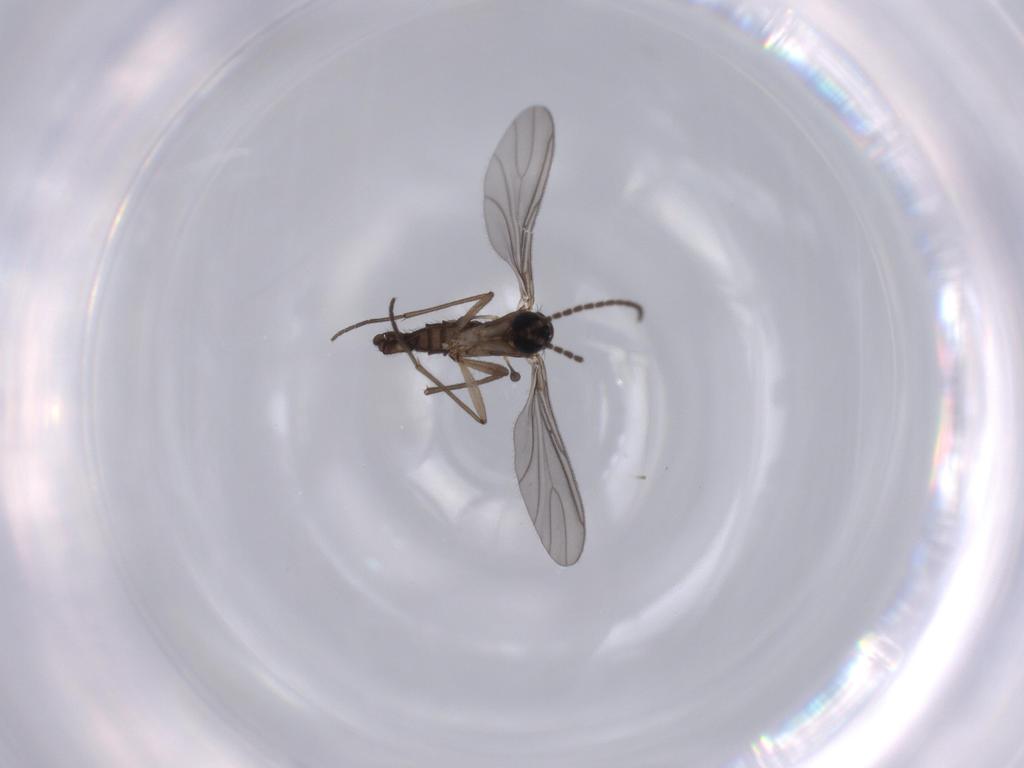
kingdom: Animalia
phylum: Arthropoda
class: Insecta
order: Diptera
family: Sciaridae
